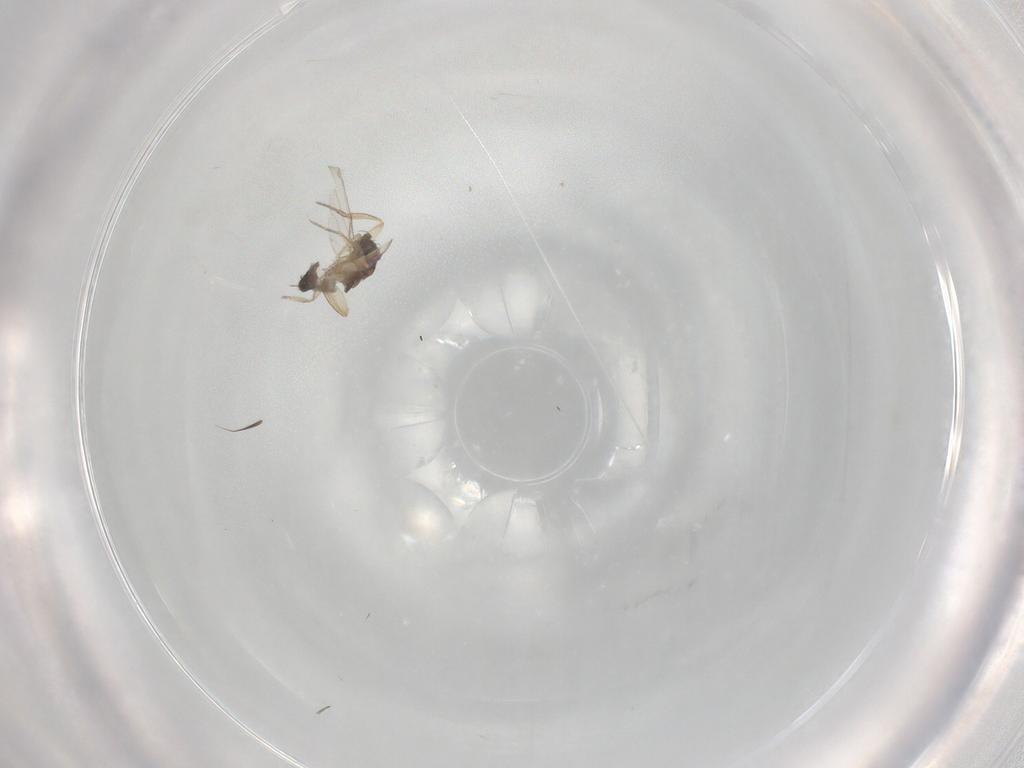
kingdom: Animalia
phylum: Arthropoda
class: Insecta
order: Diptera
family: Phoridae
